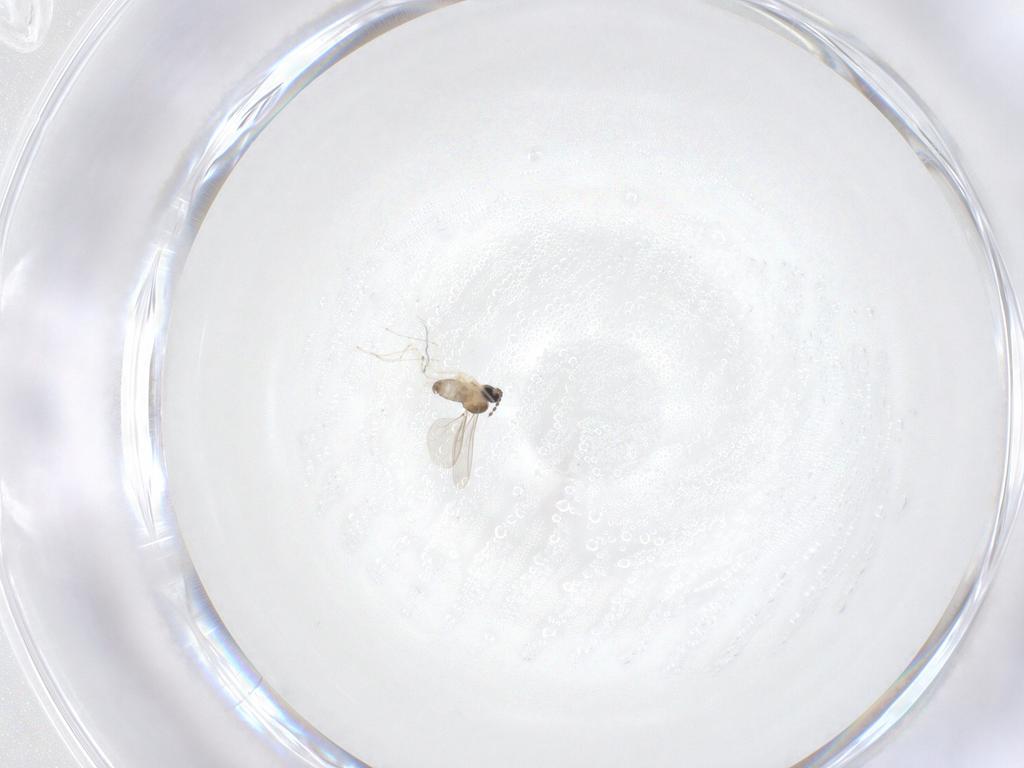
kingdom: Animalia
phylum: Arthropoda
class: Insecta
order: Diptera
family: Cecidomyiidae
